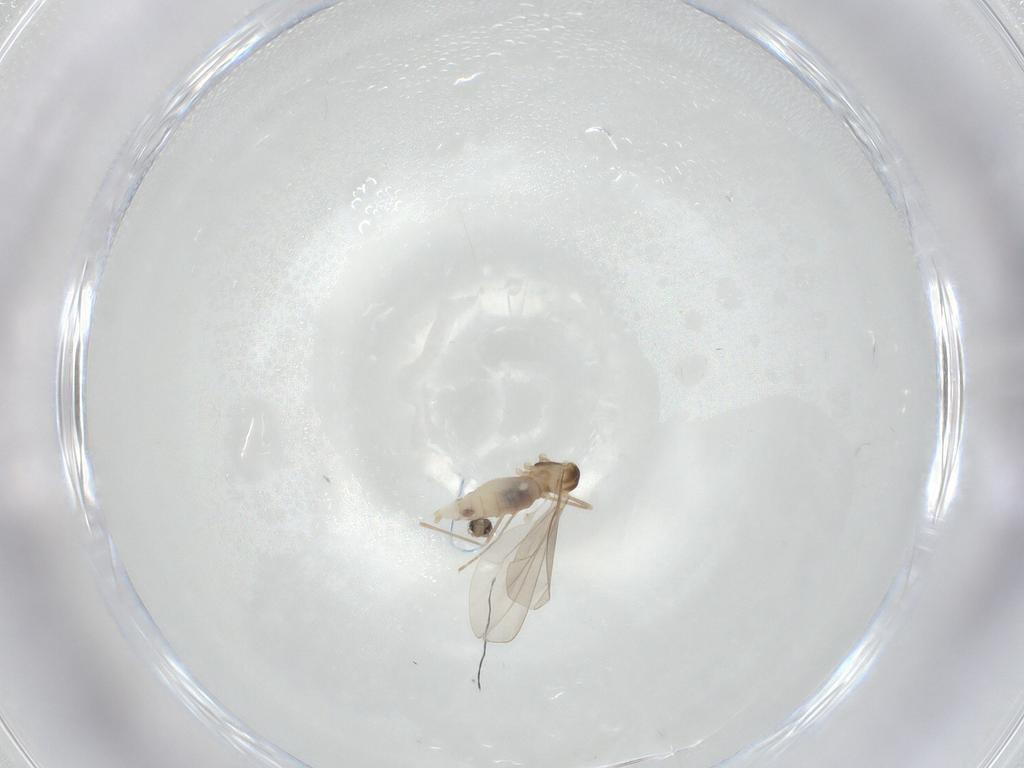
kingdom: Animalia
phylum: Arthropoda
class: Insecta
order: Diptera
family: Cecidomyiidae
